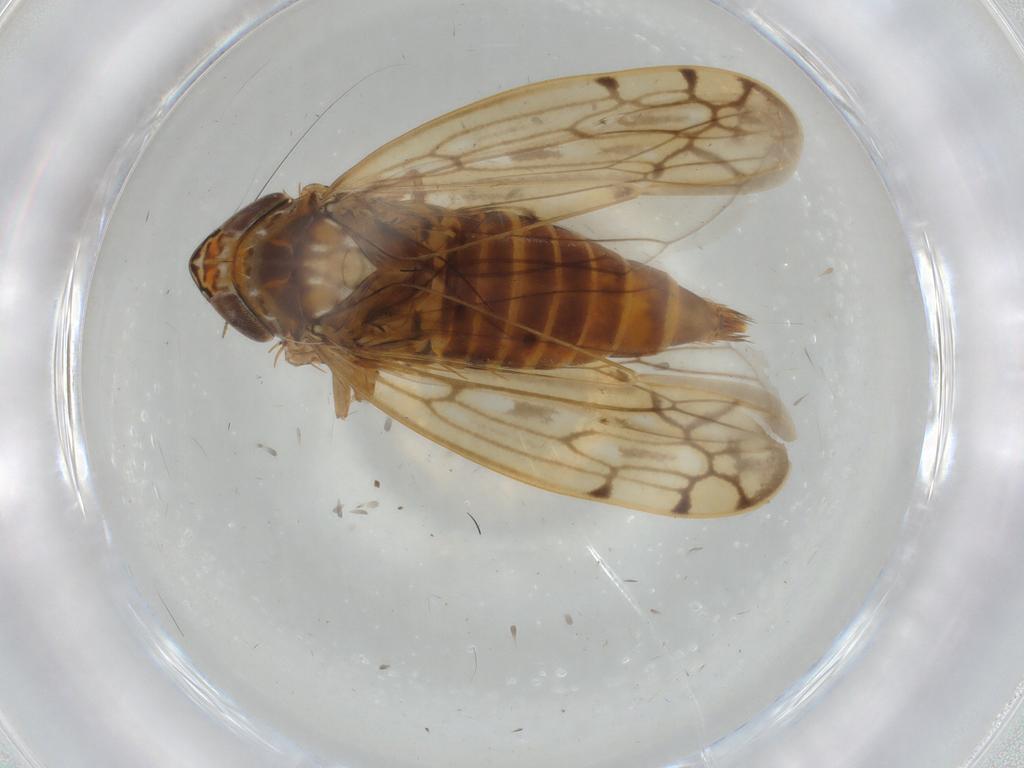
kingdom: Animalia
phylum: Arthropoda
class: Insecta
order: Hemiptera
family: Cicadellidae
